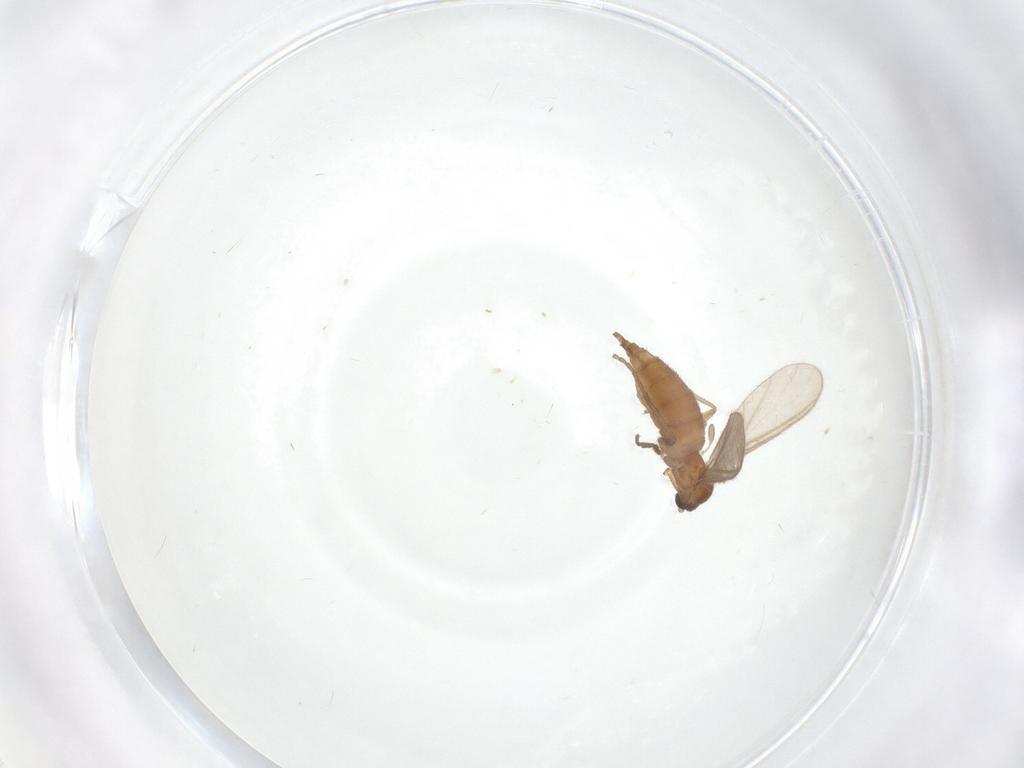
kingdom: Animalia
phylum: Arthropoda
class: Insecta
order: Diptera
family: Sciaridae
